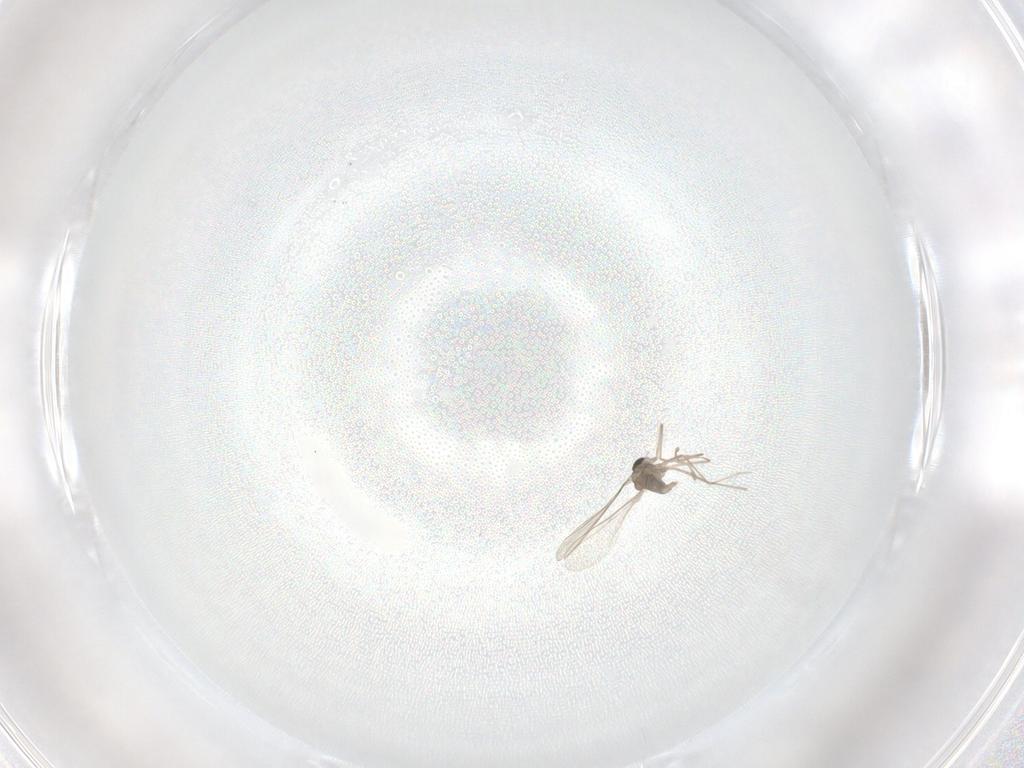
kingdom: Animalia
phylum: Arthropoda
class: Insecta
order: Diptera
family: Cecidomyiidae
